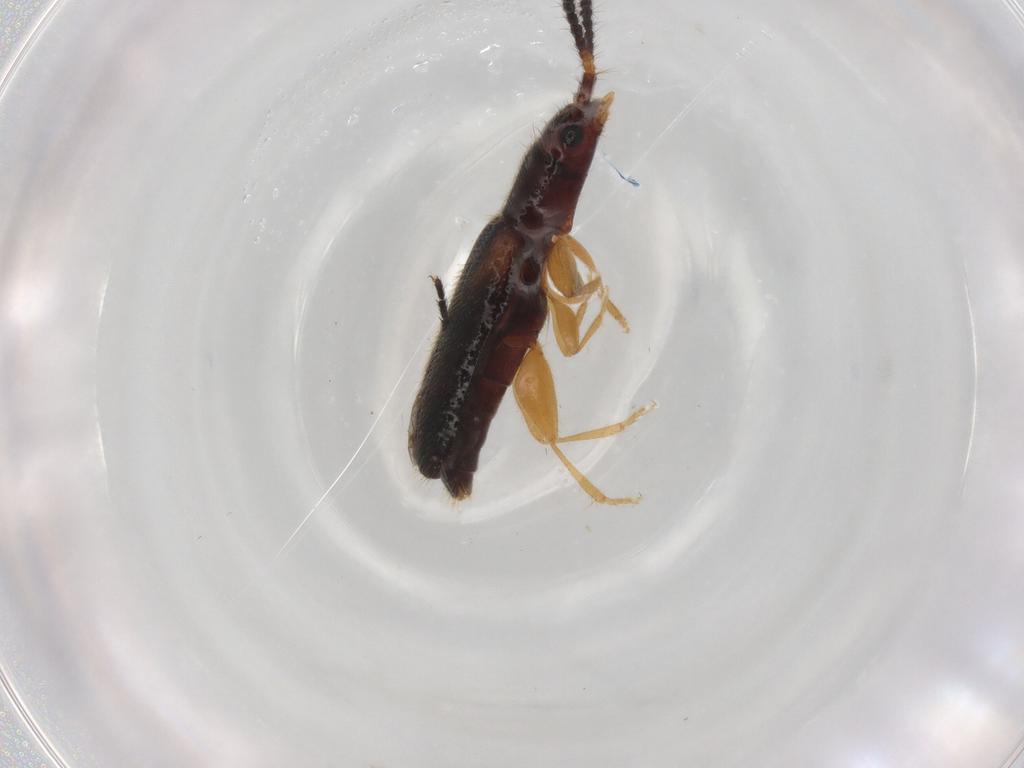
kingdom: Animalia
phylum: Arthropoda
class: Insecta
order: Coleoptera
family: Silvanidae
